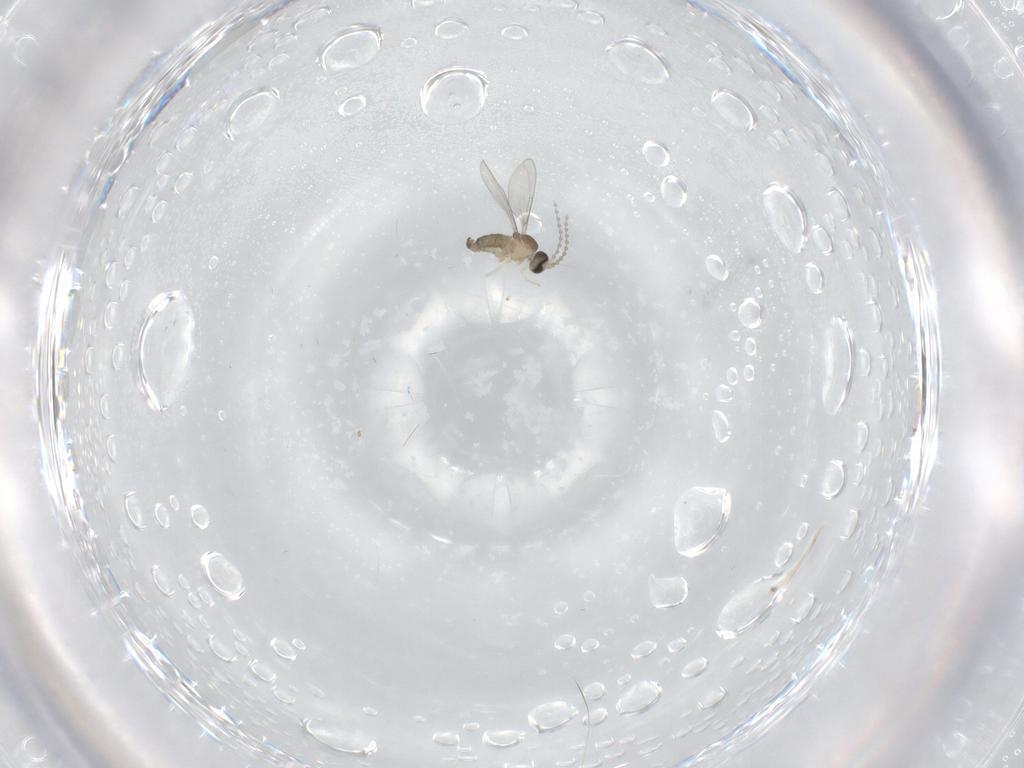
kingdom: Animalia
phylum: Arthropoda
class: Insecta
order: Diptera
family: Cecidomyiidae
